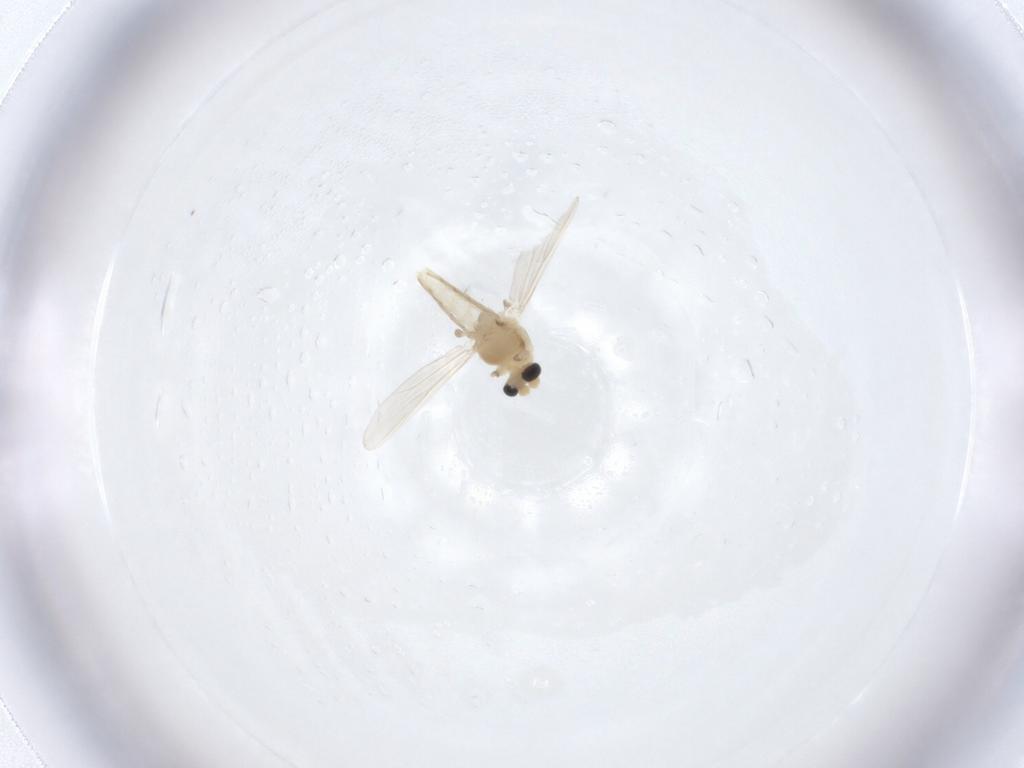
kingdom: Animalia
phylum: Arthropoda
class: Insecta
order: Diptera
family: Chironomidae
